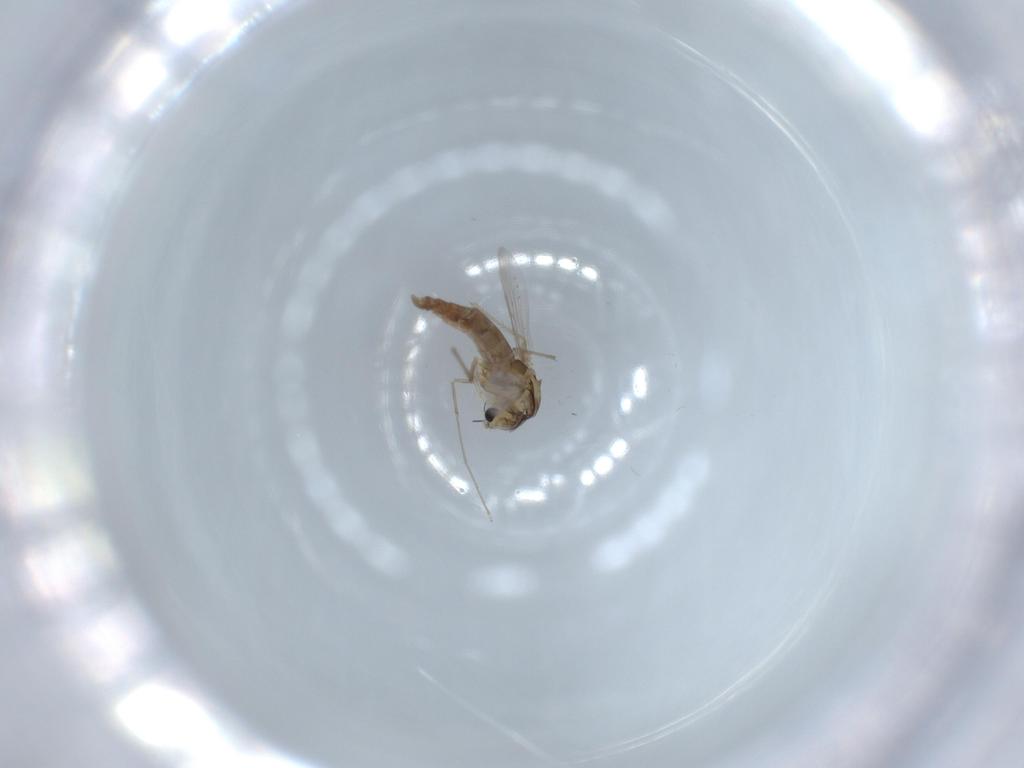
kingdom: Animalia
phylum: Arthropoda
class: Insecta
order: Diptera
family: Chironomidae
